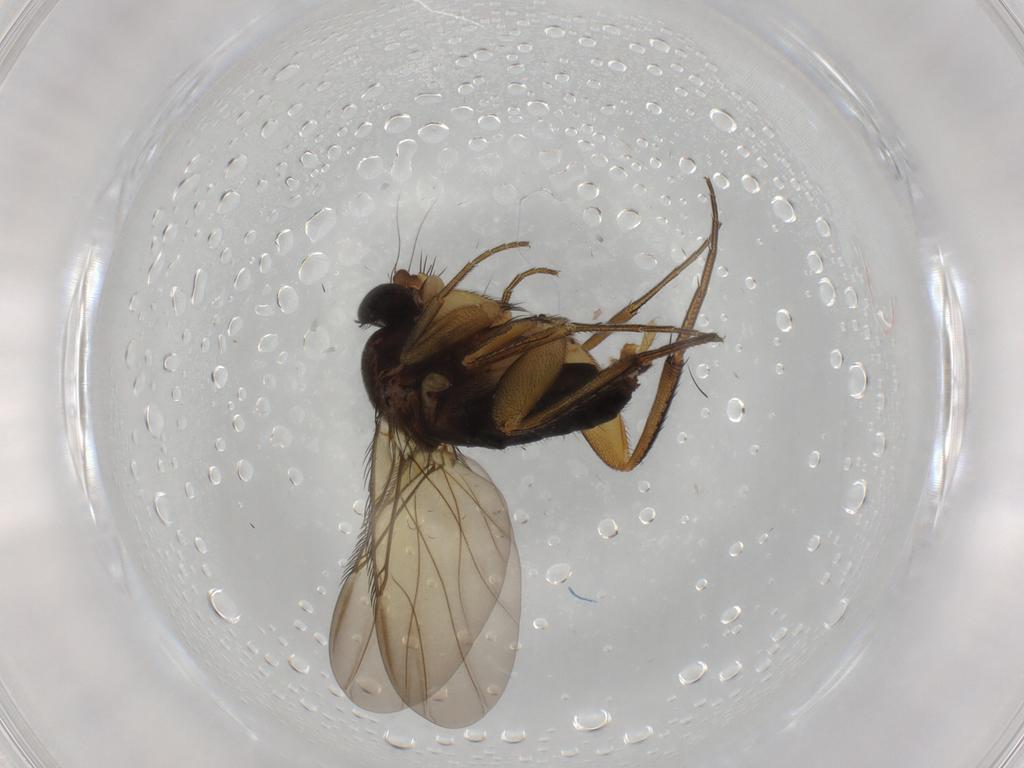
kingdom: Animalia
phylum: Arthropoda
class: Insecta
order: Diptera
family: Phoridae
